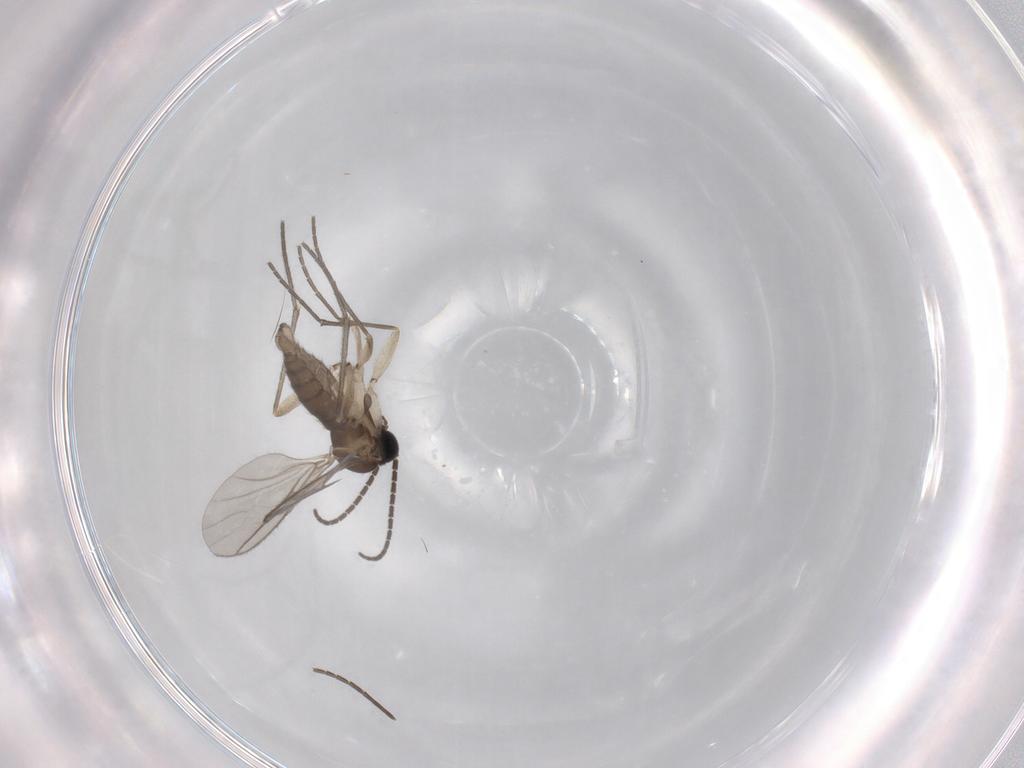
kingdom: Animalia
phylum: Arthropoda
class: Insecta
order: Diptera
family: Sciaridae
